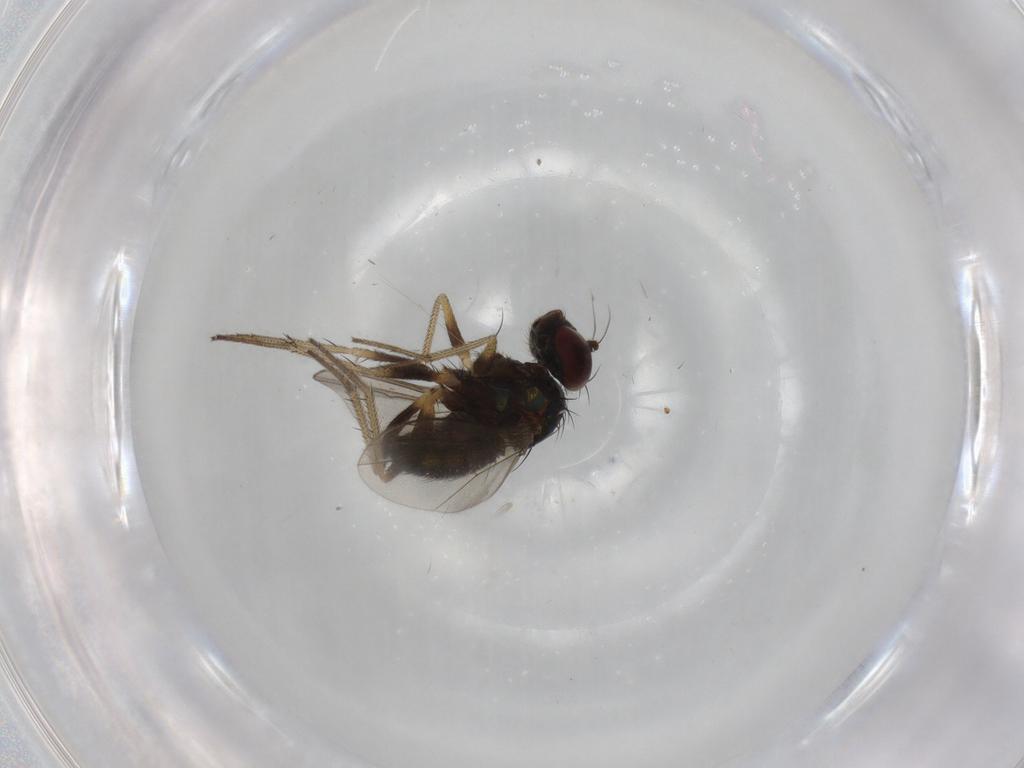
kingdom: Animalia
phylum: Arthropoda
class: Insecta
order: Diptera
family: Dolichopodidae
